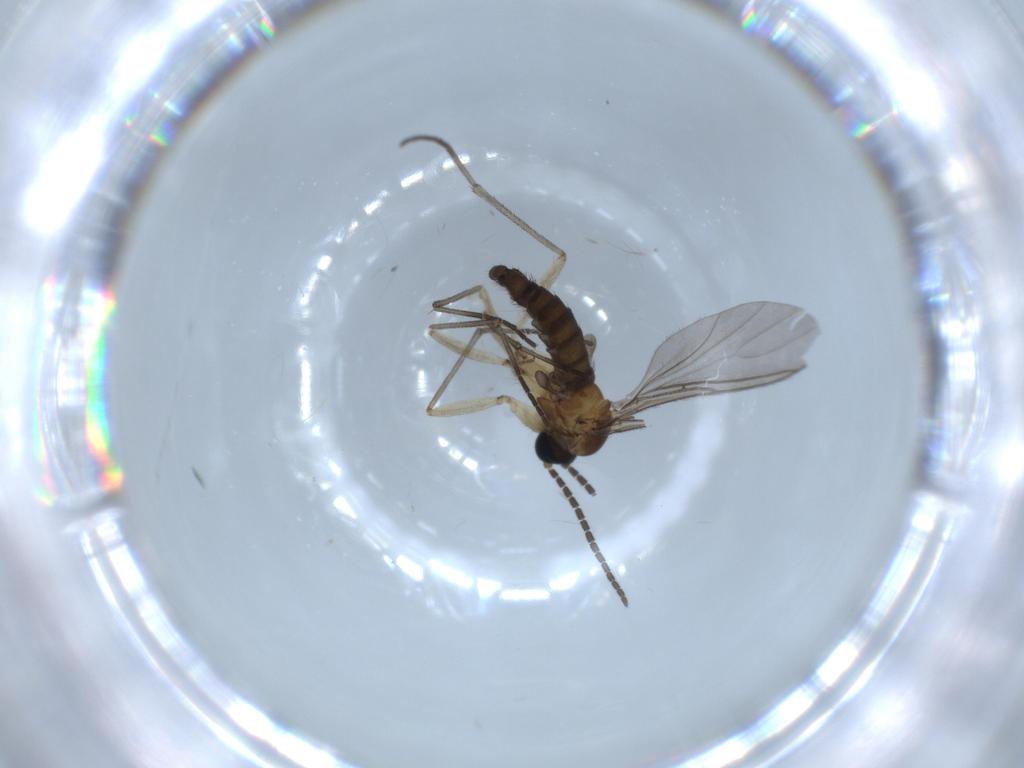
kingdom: Animalia
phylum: Arthropoda
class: Insecta
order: Diptera
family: Sciaridae
